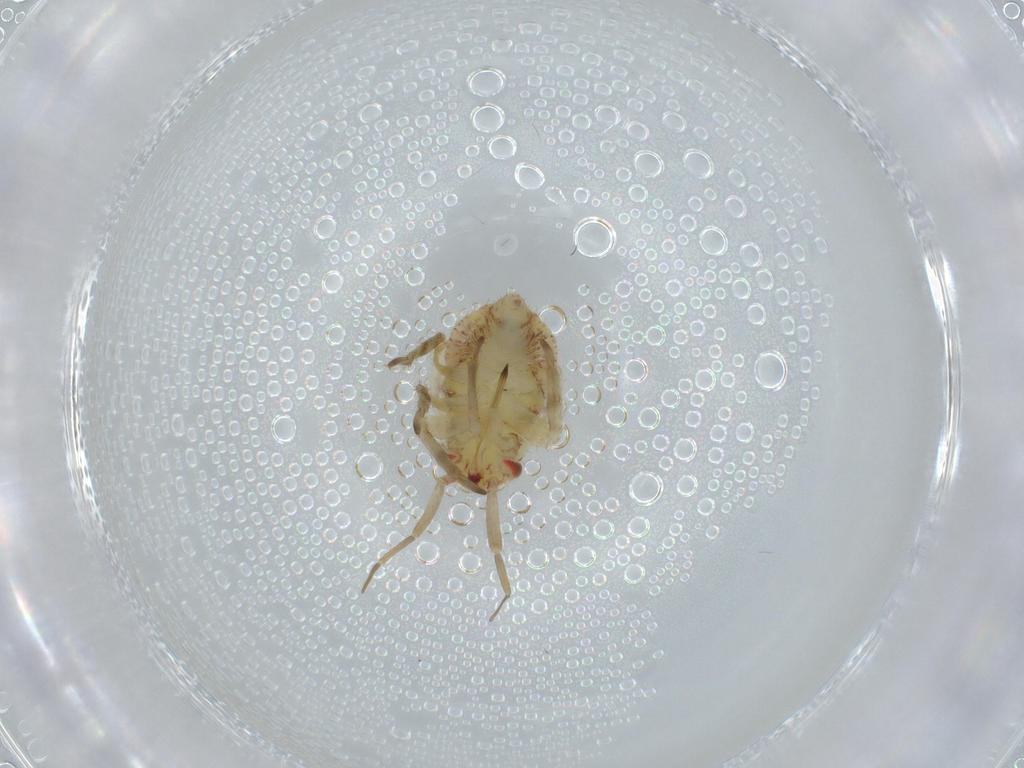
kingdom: Animalia
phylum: Arthropoda
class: Insecta
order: Hemiptera
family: Miridae
